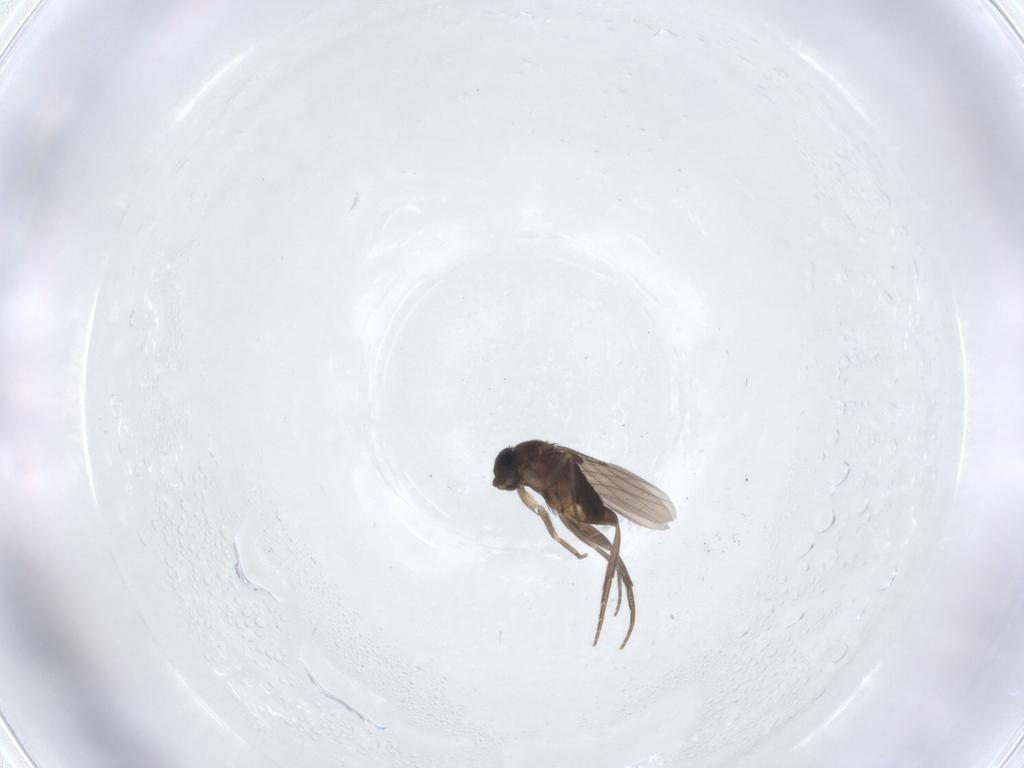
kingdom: Animalia
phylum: Arthropoda
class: Insecta
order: Diptera
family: Phoridae
